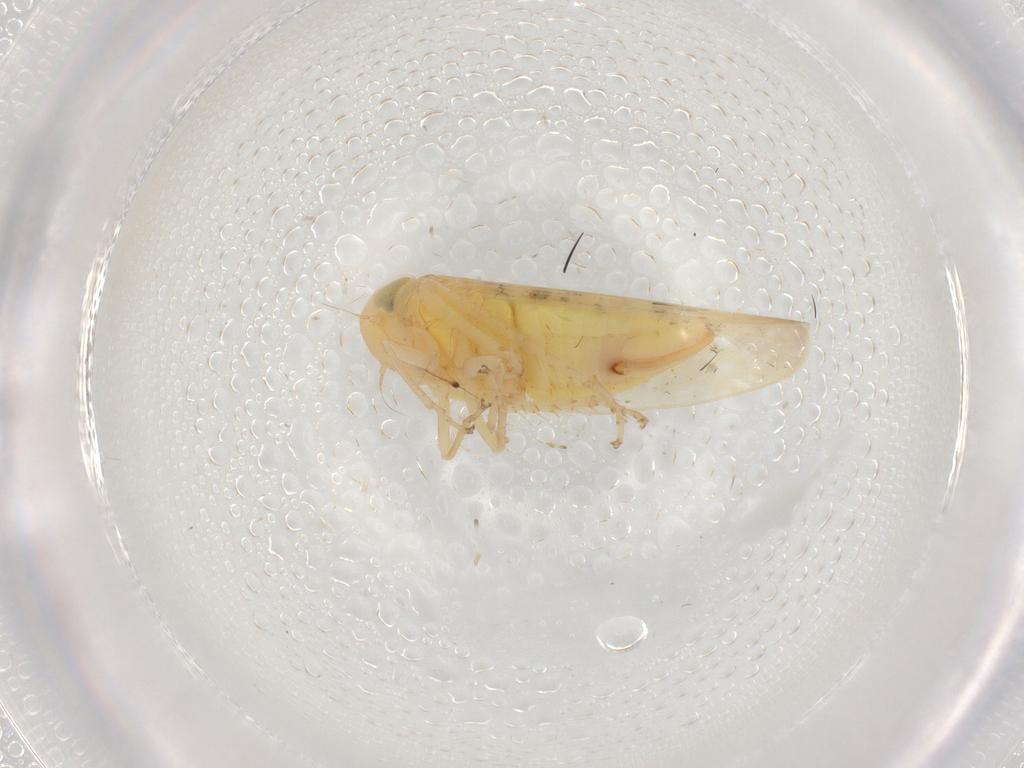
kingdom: Animalia
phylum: Arthropoda
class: Insecta
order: Hemiptera
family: Cicadellidae
